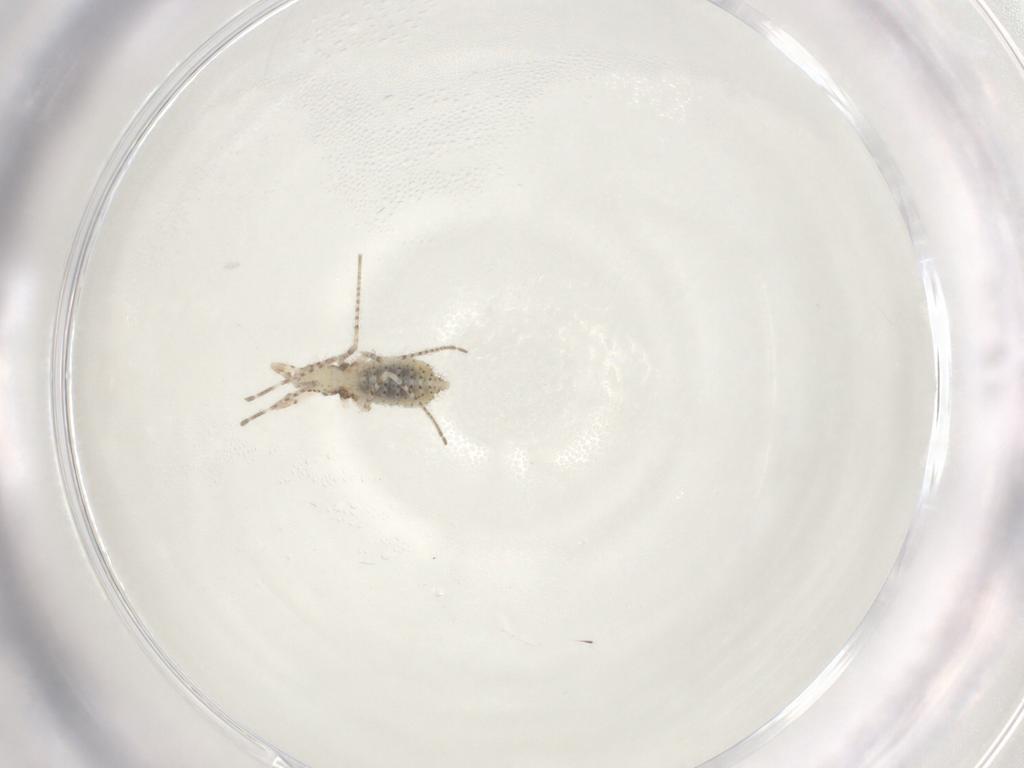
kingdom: Animalia
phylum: Arthropoda
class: Insecta
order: Hemiptera
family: Reduviidae
